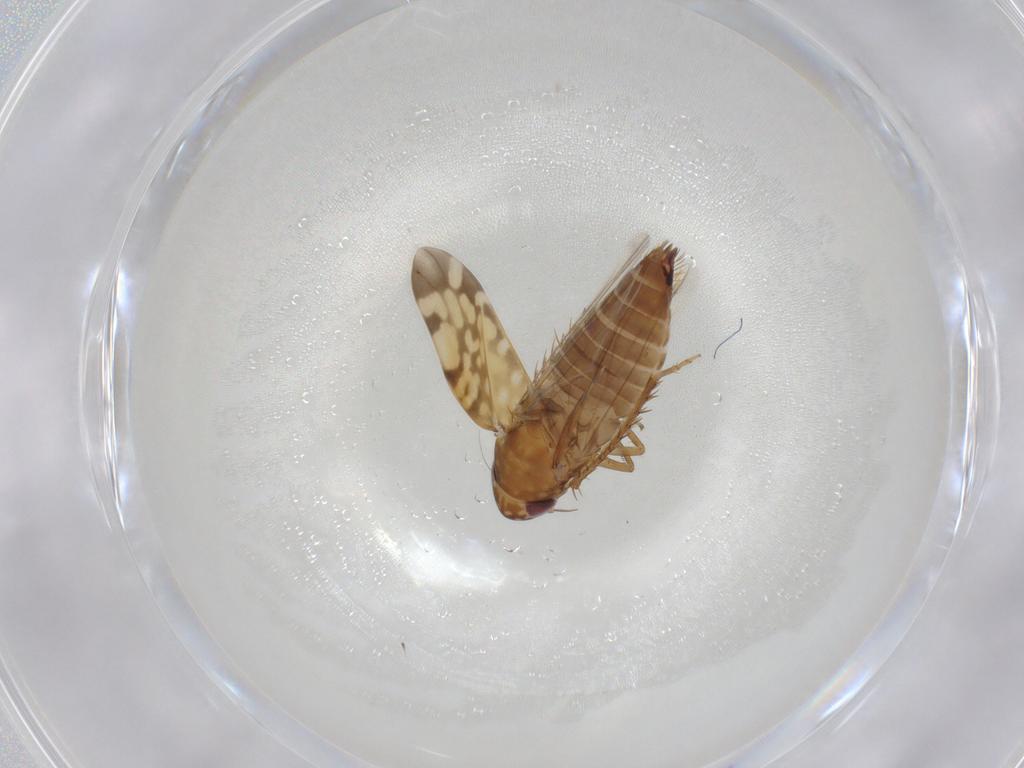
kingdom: Animalia
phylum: Arthropoda
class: Insecta
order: Hemiptera
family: Cicadellidae
